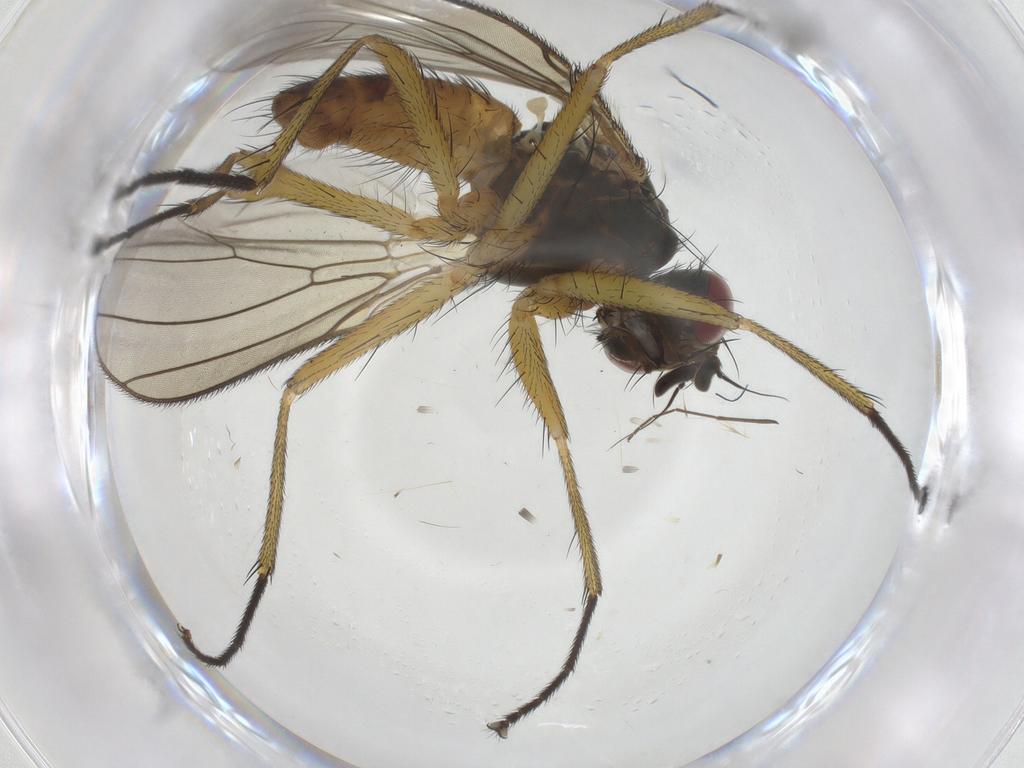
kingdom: Animalia
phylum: Arthropoda
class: Insecta
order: Diptera
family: Muscidae
